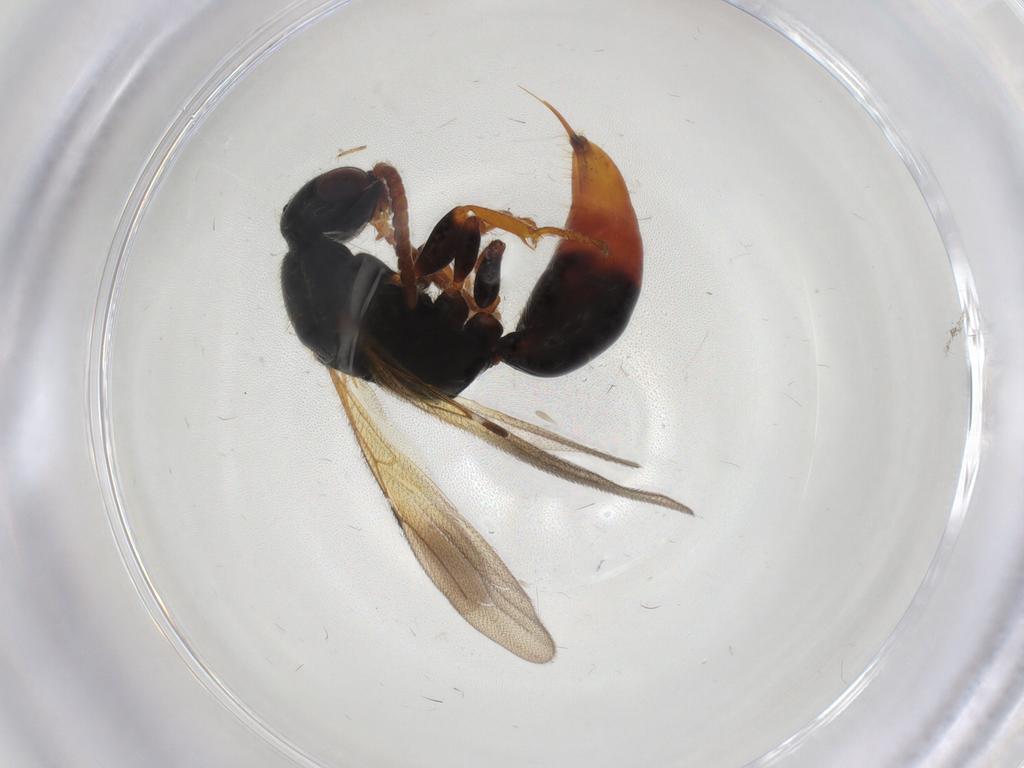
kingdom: Animalia
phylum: Arthropoda
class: Insecta
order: Hymenoptera
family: Bethylidae
